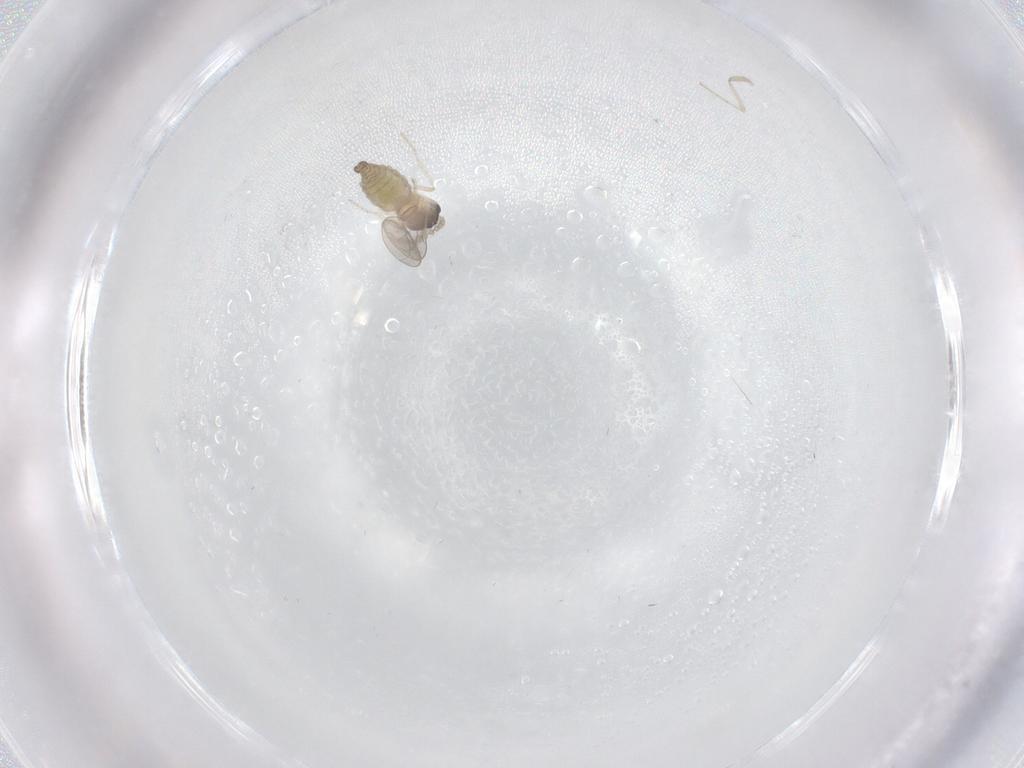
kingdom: Animalia
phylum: Arthropoda
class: Insecta
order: Diptera
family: Cecidomyiidae
